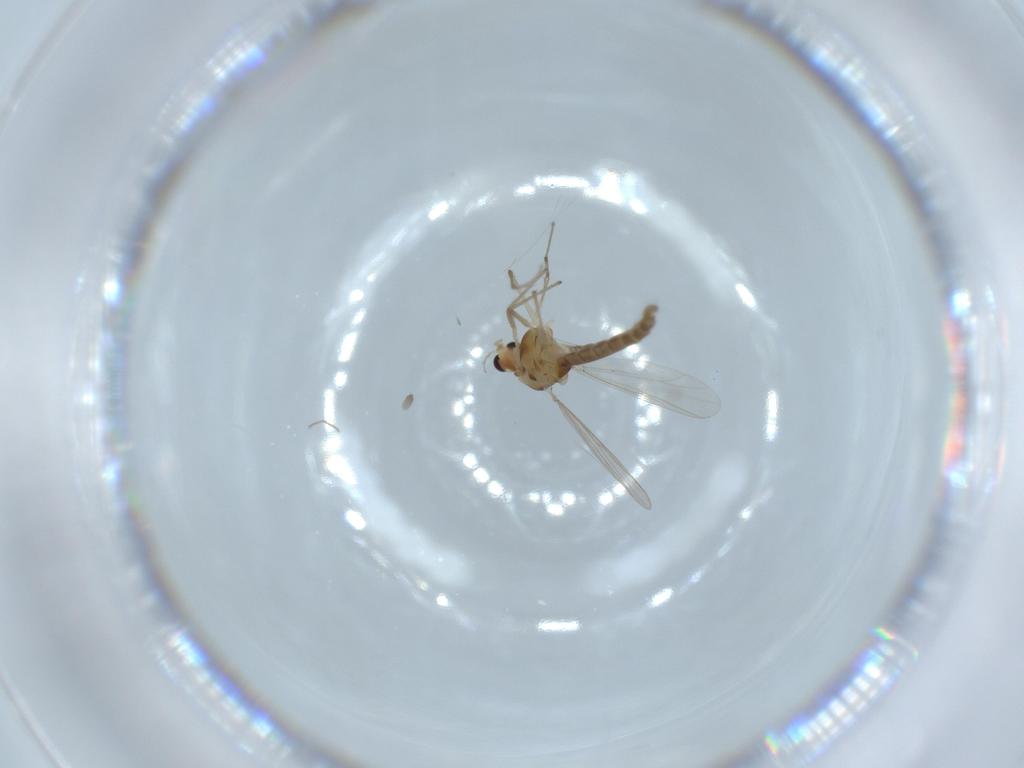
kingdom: Animalia
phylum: Arthropoda
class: Insecta
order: Diptera
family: Chironomidae
